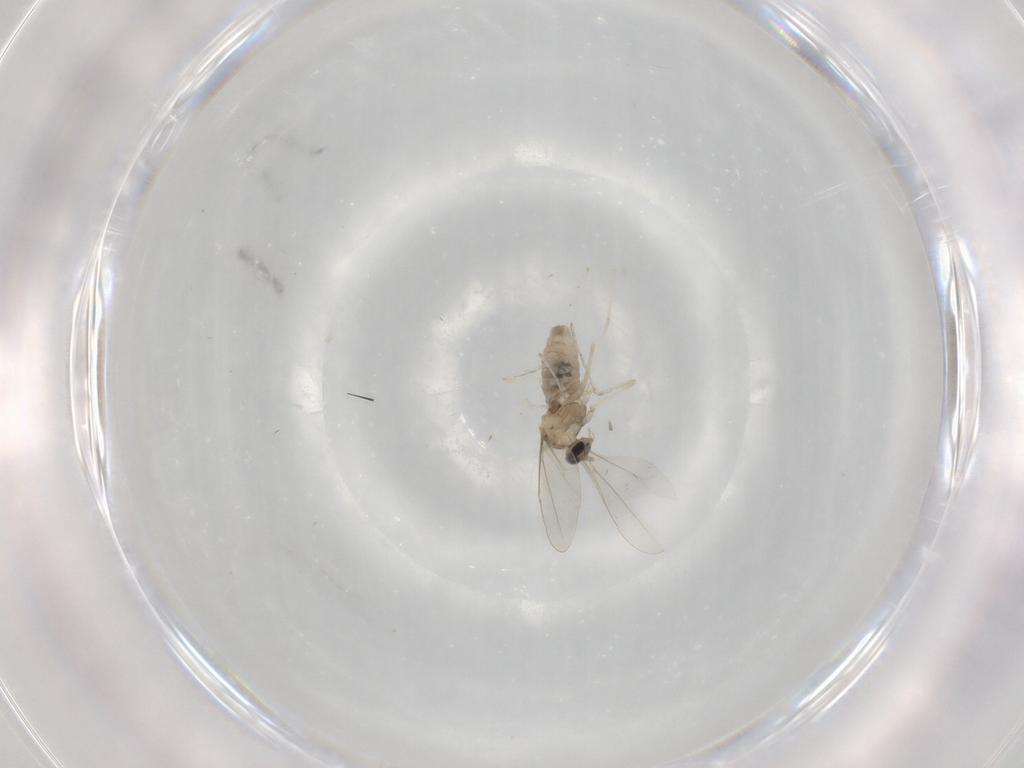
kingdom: Animalia
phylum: Arthropoda
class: Insecta
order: Diptera
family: Cecidomyiidae
